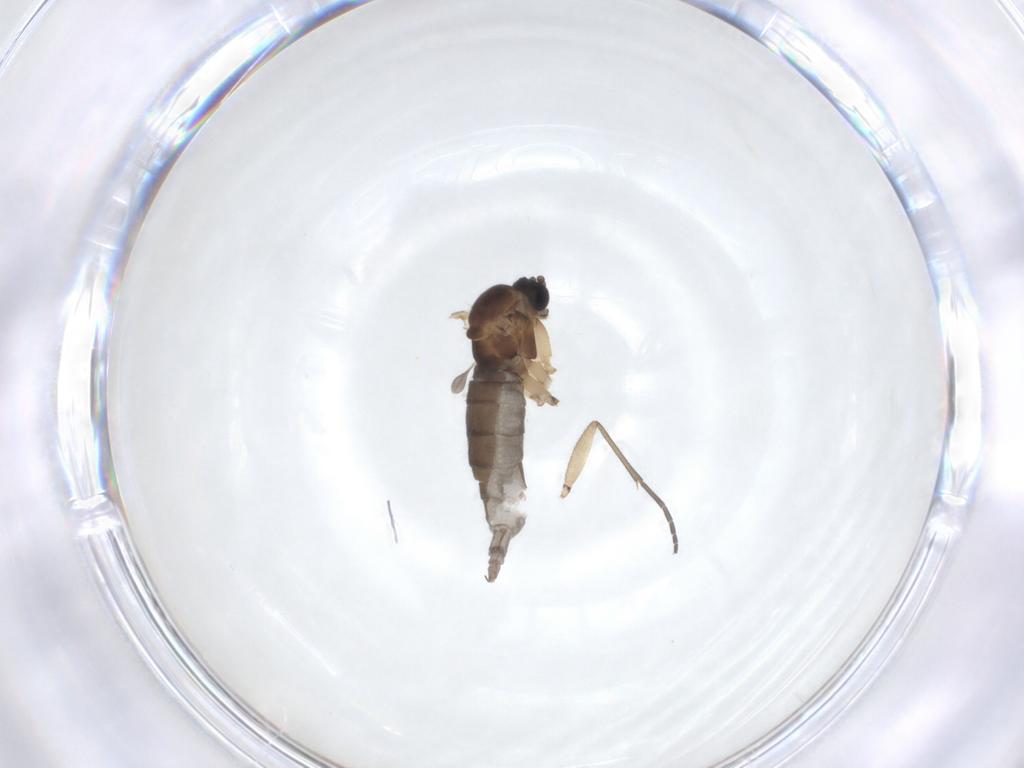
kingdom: Animalia
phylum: Arthropoda
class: Insecta
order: Diptera
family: Sciaridae
